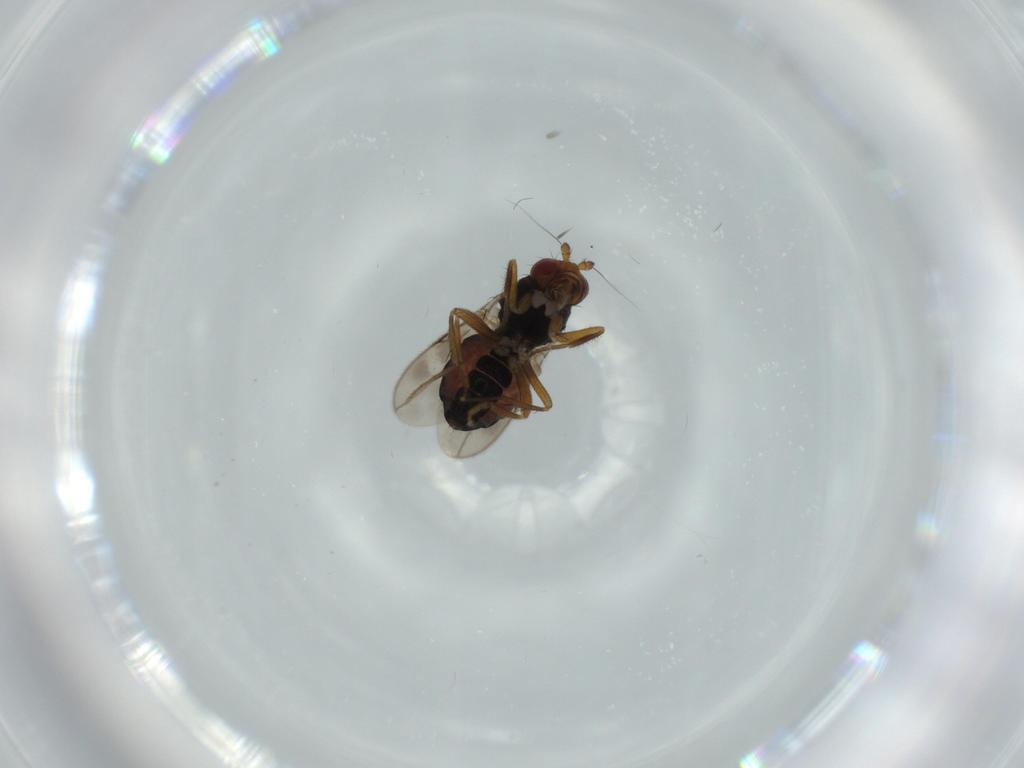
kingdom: Animalia
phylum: Arthropoda
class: Insecta
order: Diptera
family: Sphaeroceridae
